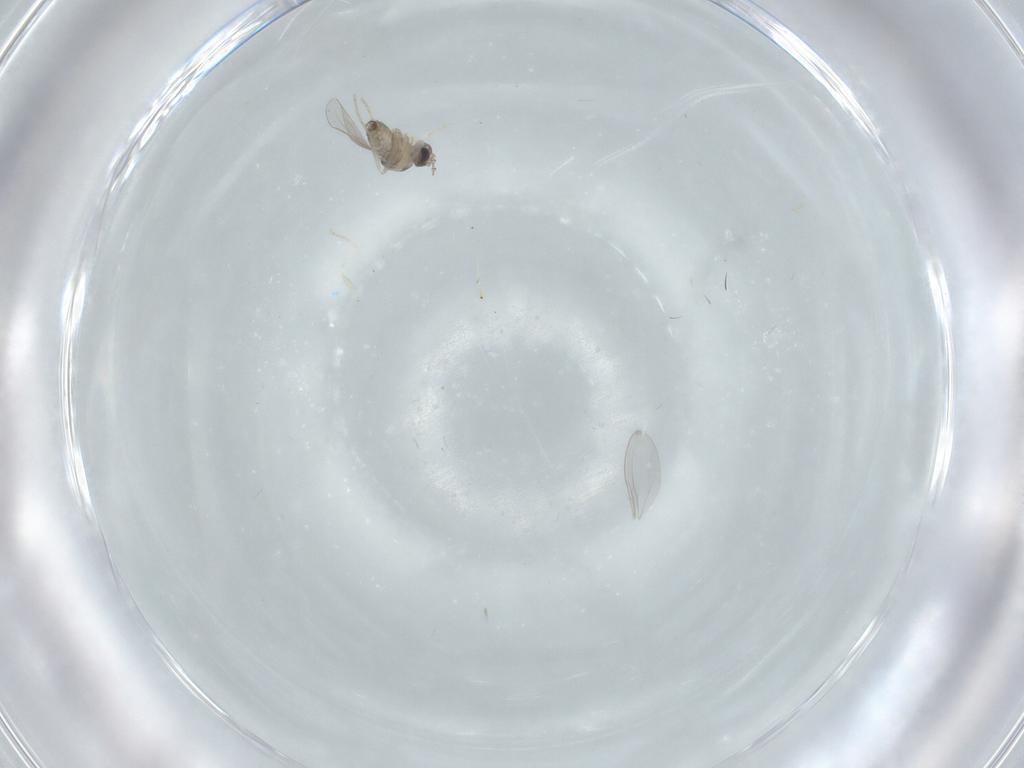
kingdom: Animalia
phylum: Arthropoda
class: Insecta
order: Diptera
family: Cecidomyiidae
